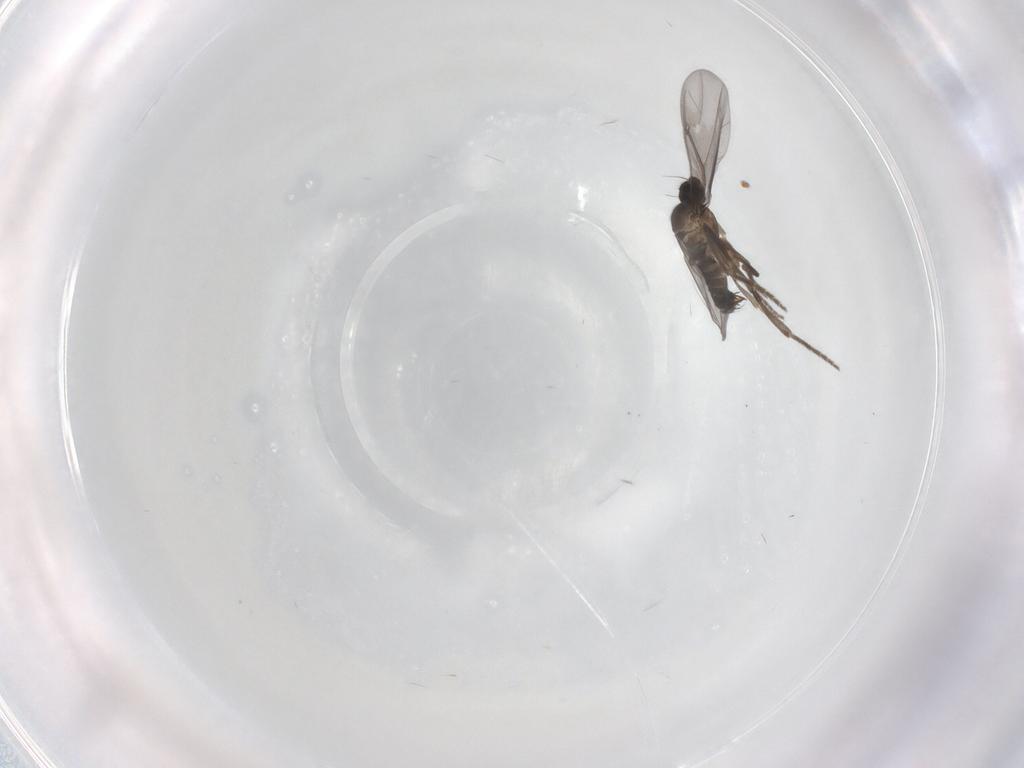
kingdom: Animalia
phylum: Arthropoda
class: Insecta
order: Diptera
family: Phoridae
